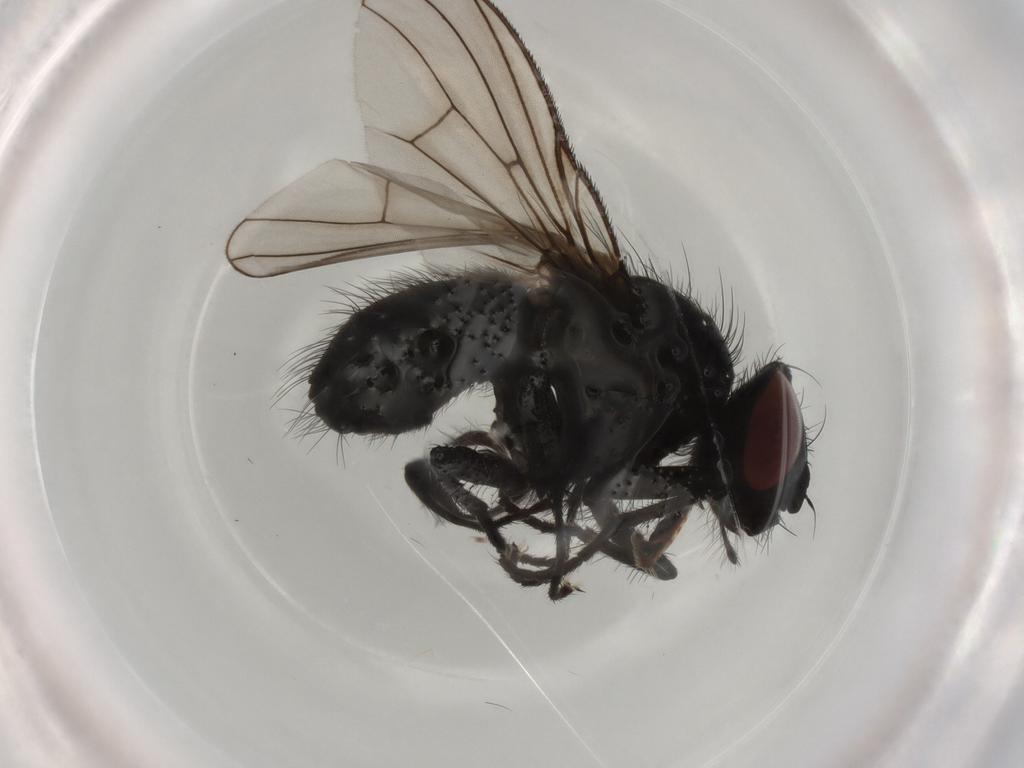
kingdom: Animalia
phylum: Arthropoda
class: Insecta
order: Diptera
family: Muscidae
